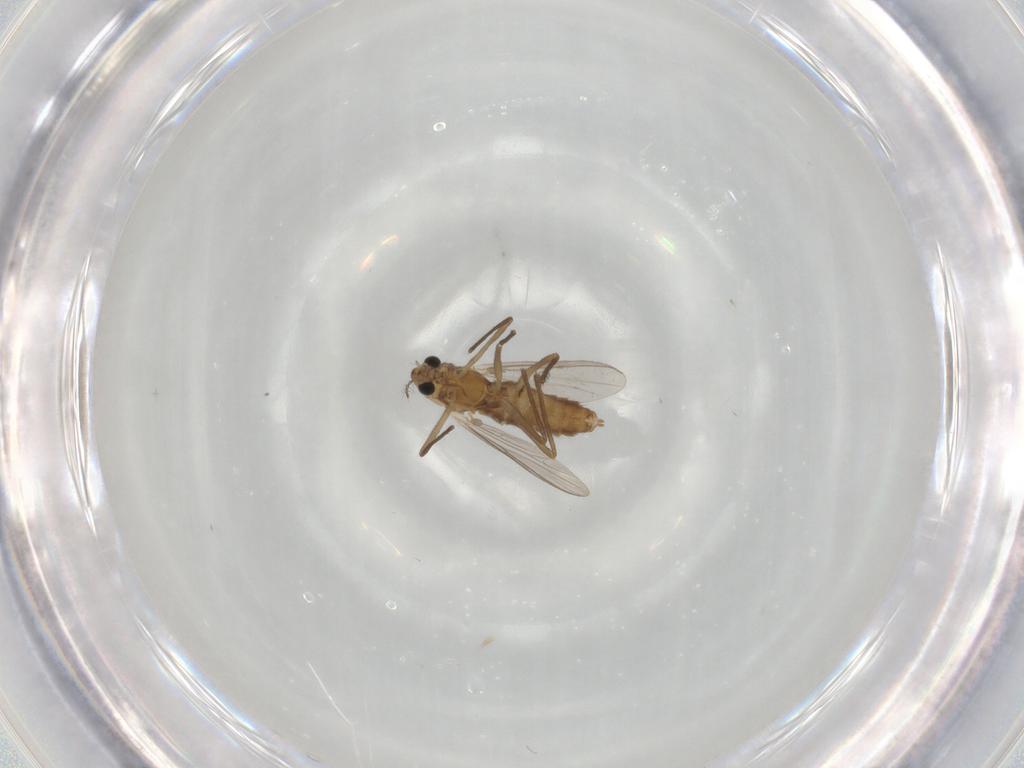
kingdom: Animalia
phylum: Arthropoda
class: Insecta
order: Diptera
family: Chironomidae
